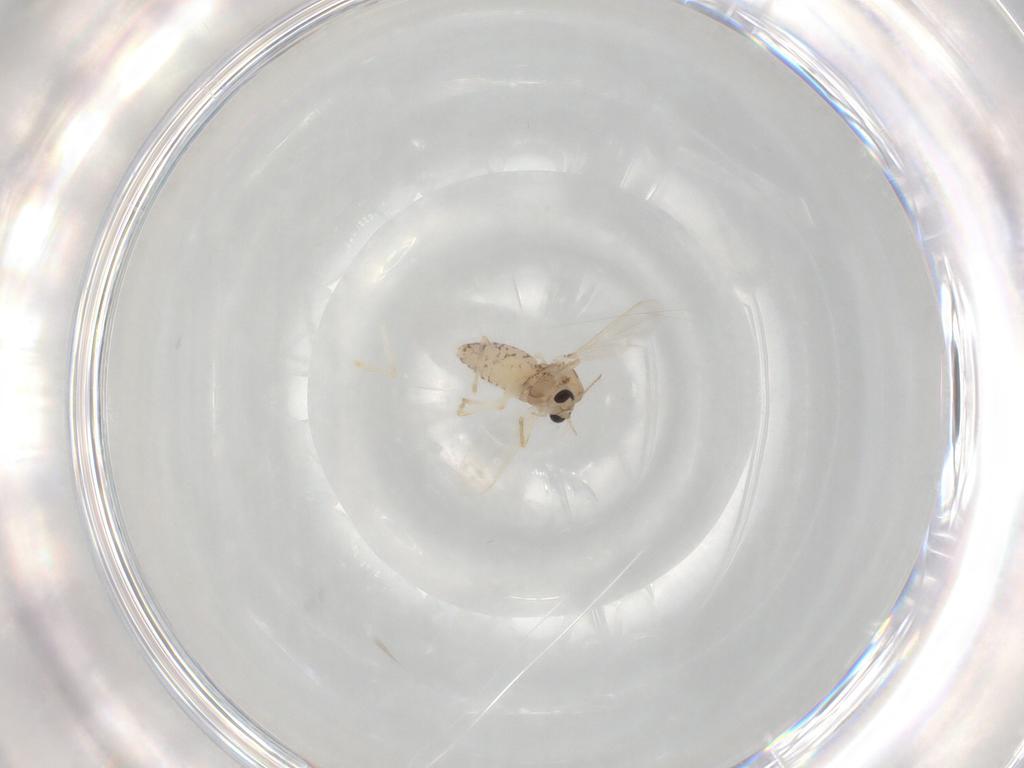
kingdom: Animalia
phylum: Arthropoda
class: Insecta
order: Diptera
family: Chironomidae
